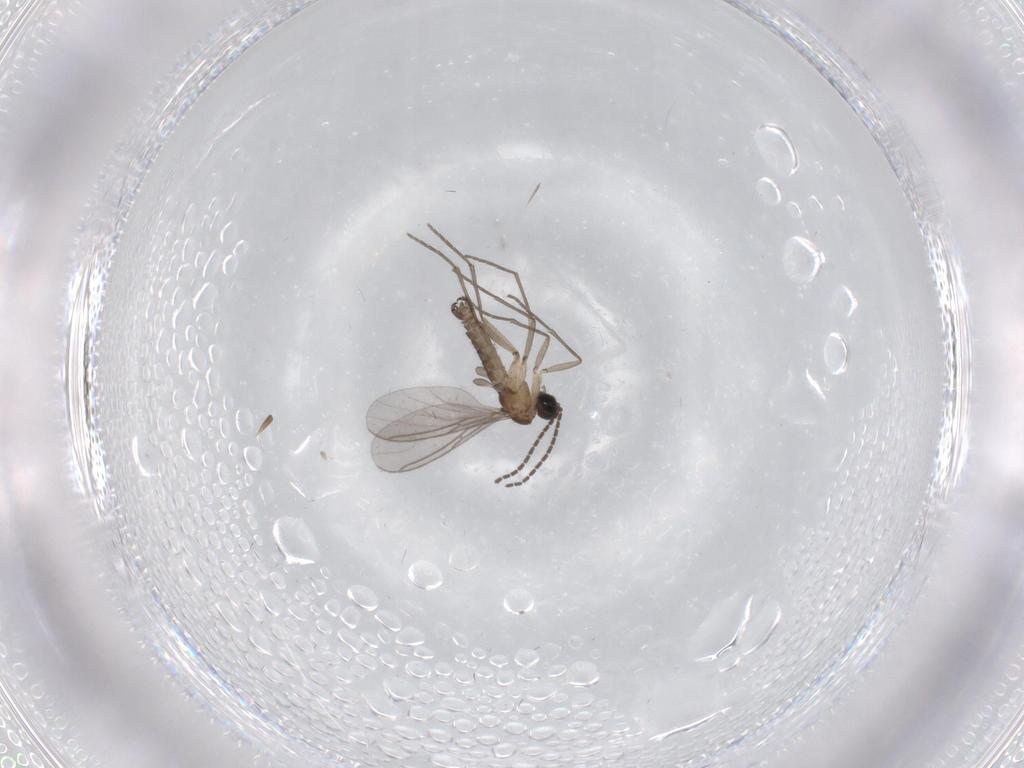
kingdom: Animalia
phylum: Arthropoda
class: Insecta
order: Diptera
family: Sciaridae
